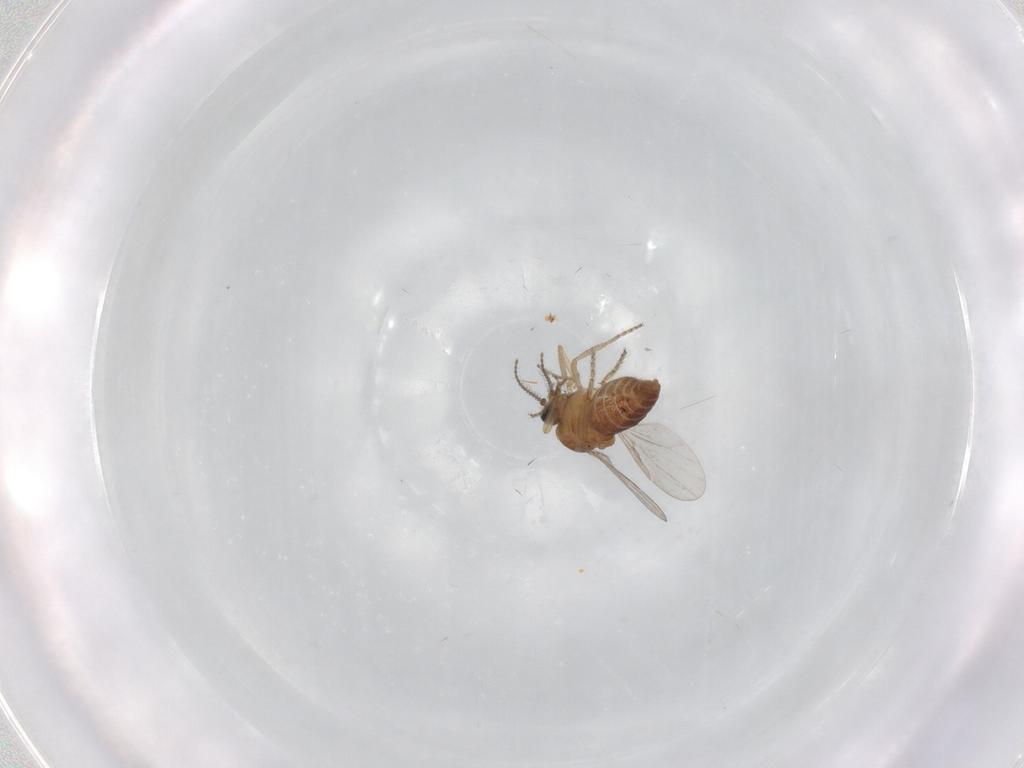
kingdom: Animalia
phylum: Arthropoda
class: Insecta
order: Diptera
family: Ceratopogonidae
